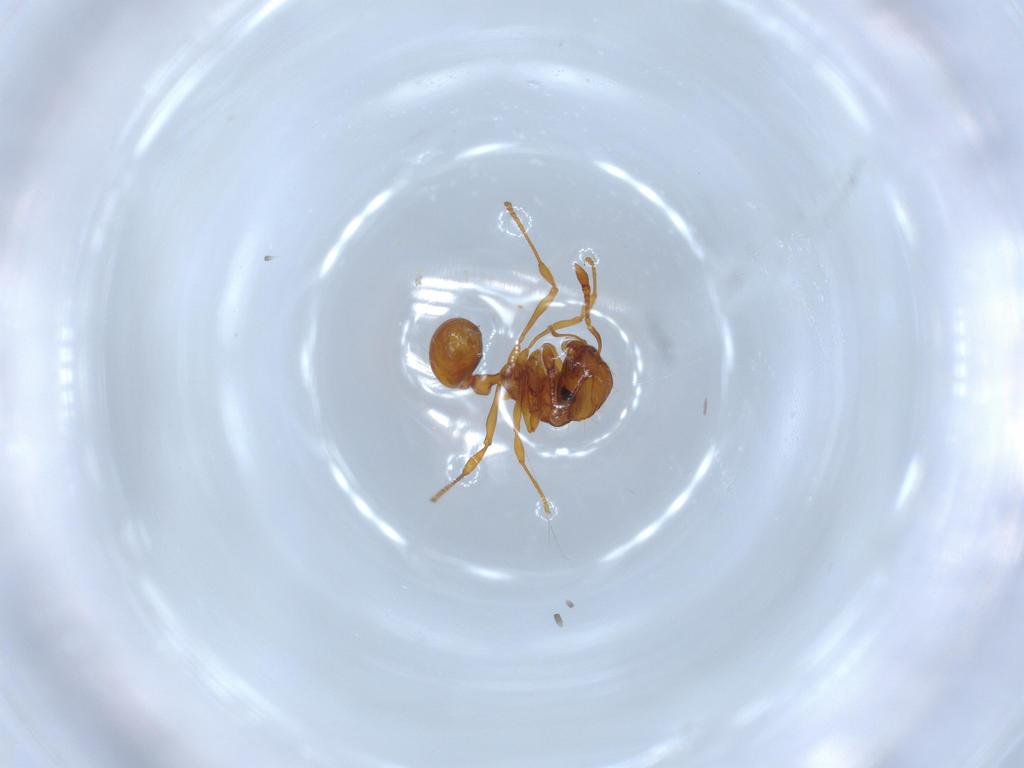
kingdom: Animalia
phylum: Arthropoda
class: Insecta
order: Hymenoptera
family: Formicidae
